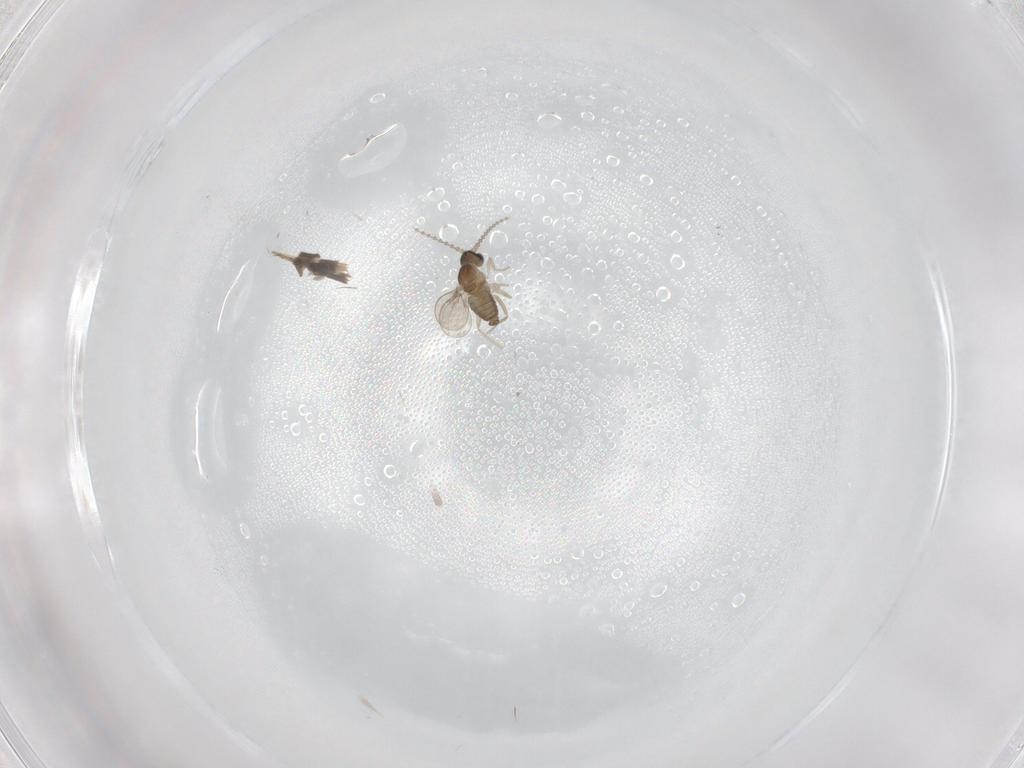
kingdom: Animalia
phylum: Arthropoda
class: Insecta
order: Diptera
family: Cecidomyiidae
